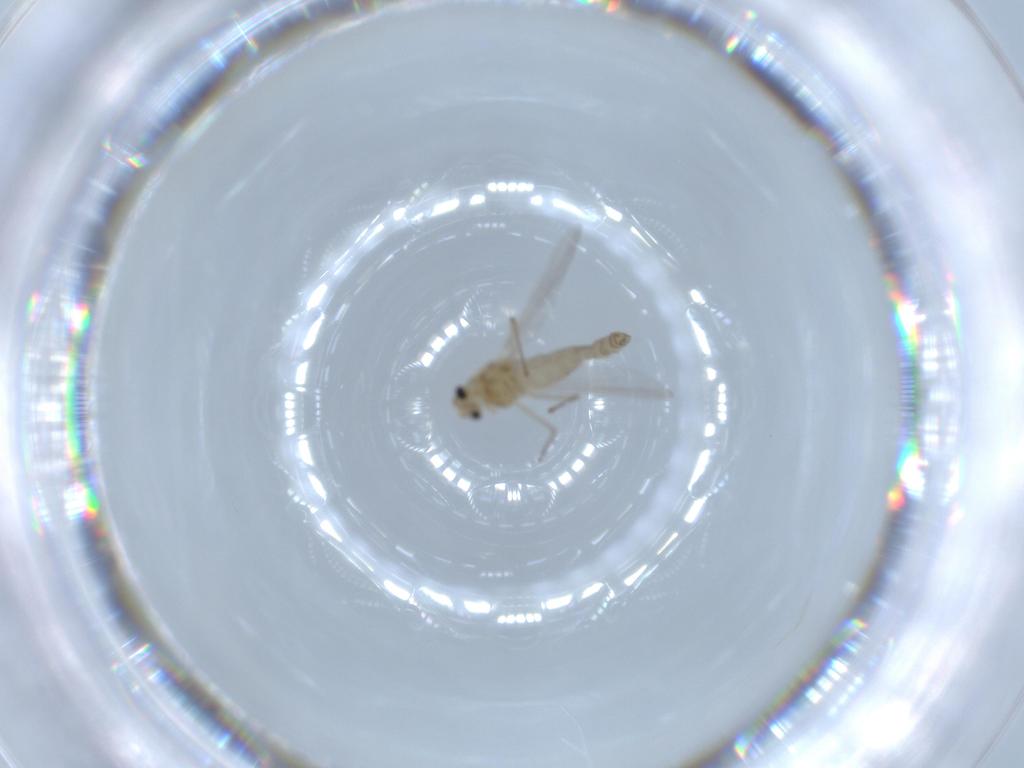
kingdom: Animalia
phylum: Arthropoda
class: Insecta
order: Diptera
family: Chironomidae
